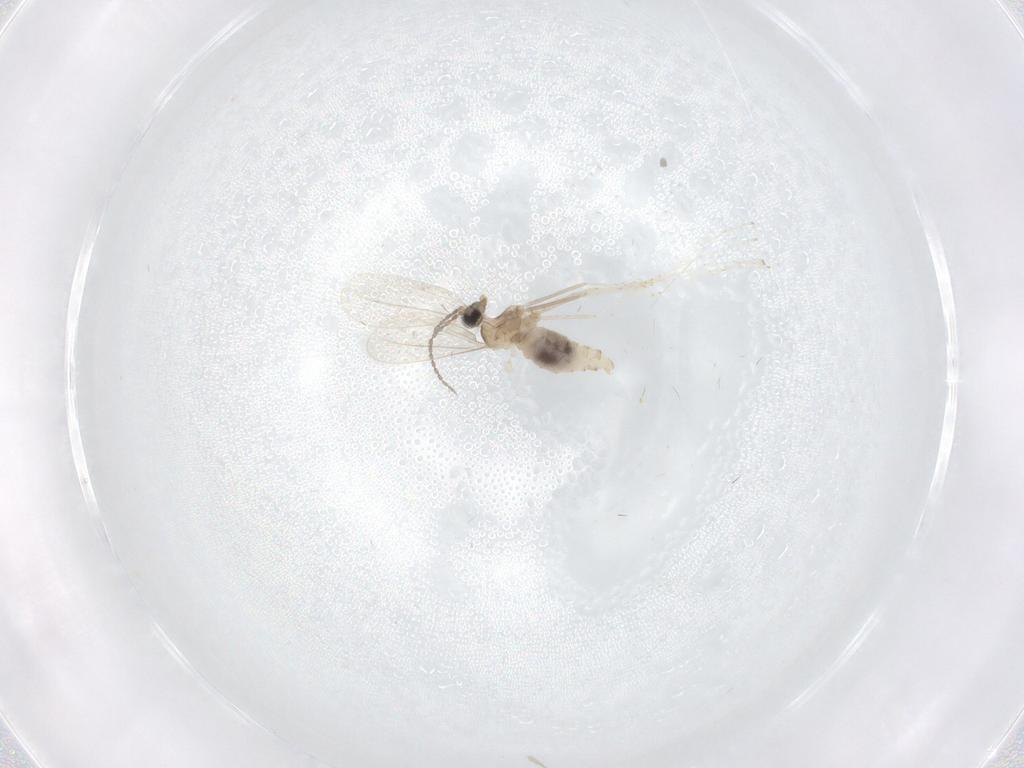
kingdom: Animalia
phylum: Arthropoda
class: Insecta
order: Diptera
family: Cecidomyiidae
